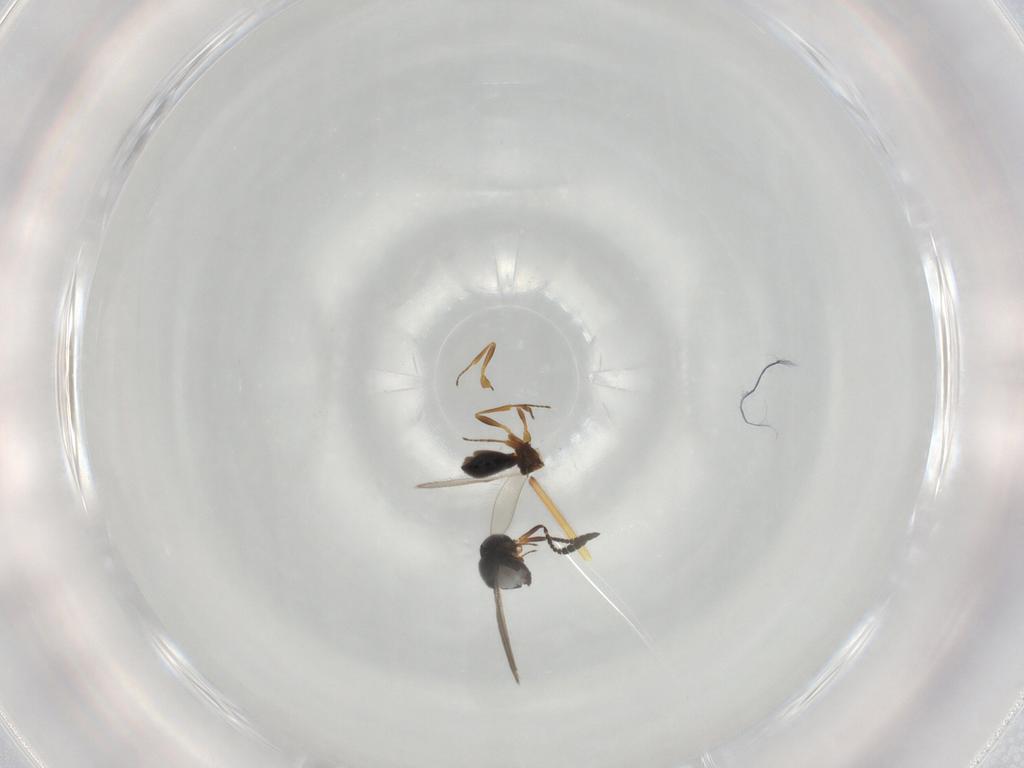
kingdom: Animalia
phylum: Arthropoda
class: Insecta
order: Hymenoptera
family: Scelionidae
